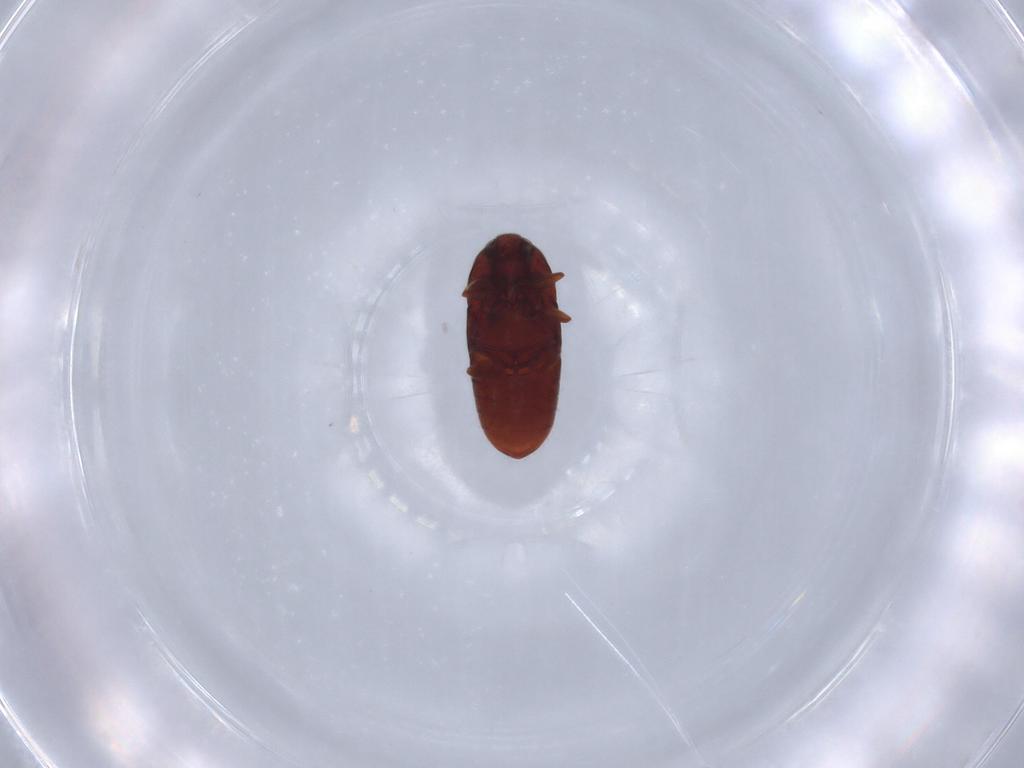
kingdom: Animalia
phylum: Arthropoda
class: Insecta
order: Coleoptera
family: Throscidae
